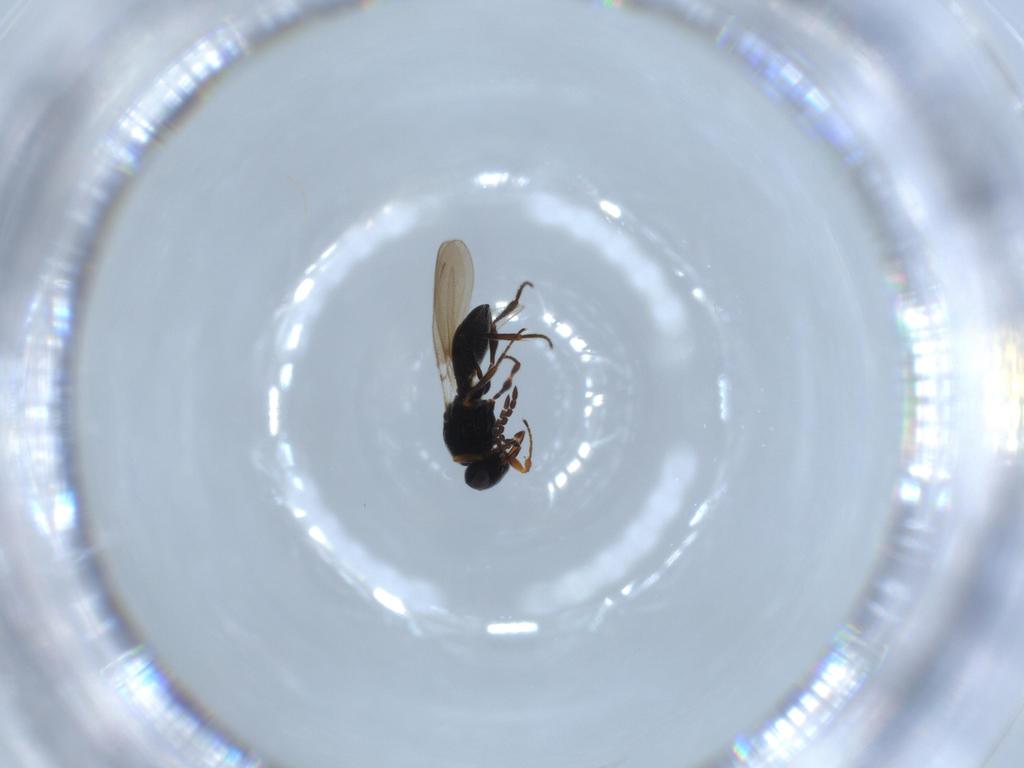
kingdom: Animalia
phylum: Arthropoda
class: Insecta
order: Hymenoptera
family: Platygastridae
